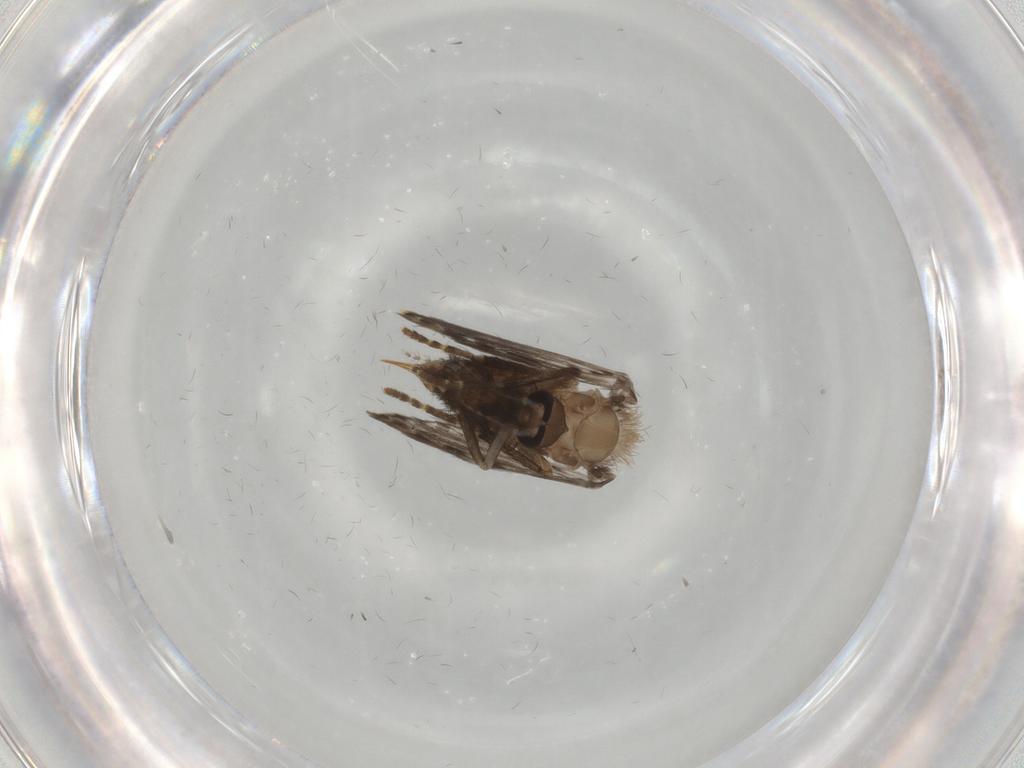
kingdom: Animalia
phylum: Arthropoda
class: Insecta
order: Diptera
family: Psychodidae
